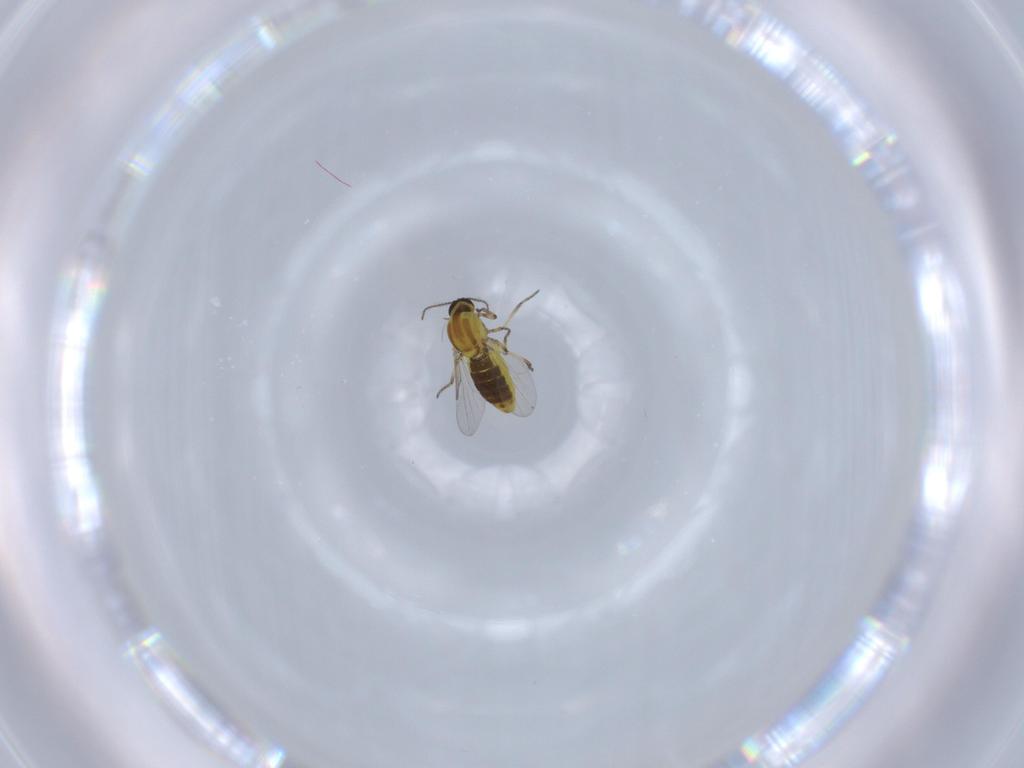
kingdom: Animalia
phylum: Arthropoda
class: Insecta
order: Diptera
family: Ceratopogonidae
